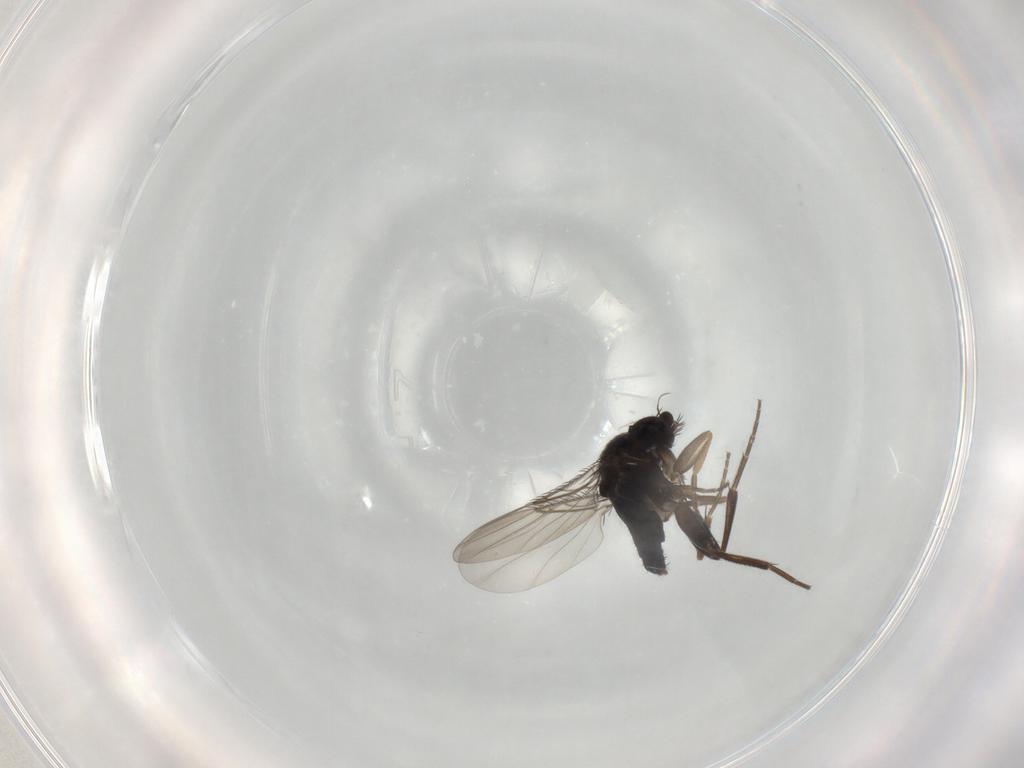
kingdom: Animalia
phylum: Arthropoda
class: Insecta
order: Diptera
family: Phoridae
